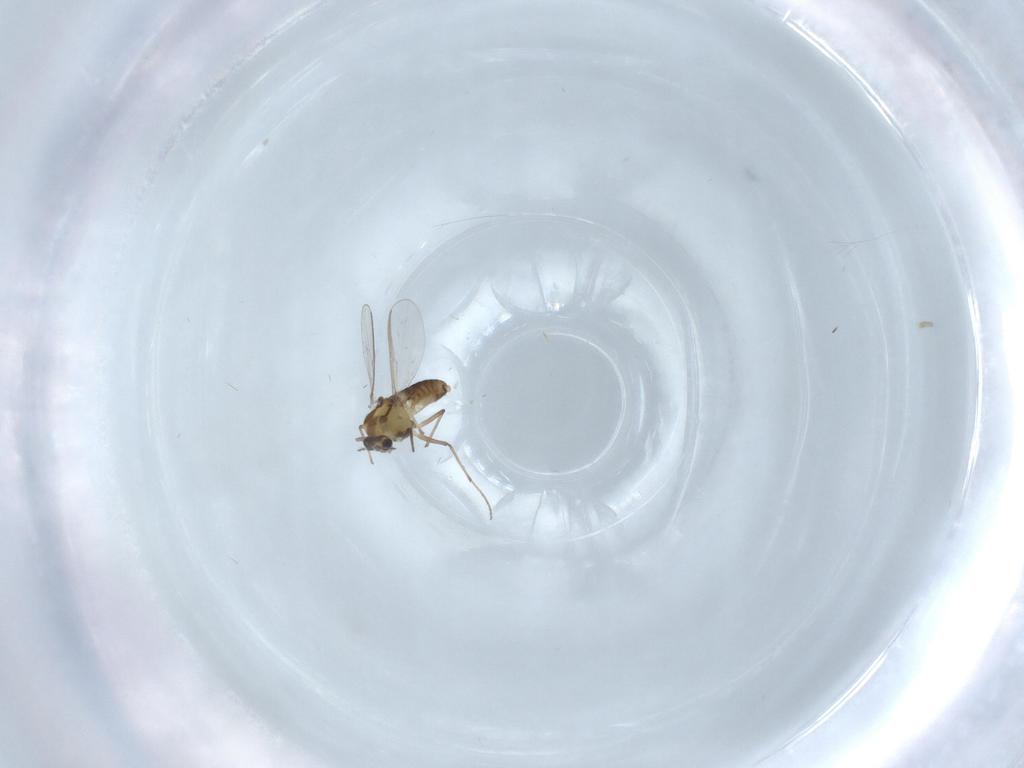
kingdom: Animalia
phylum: Arthropoda
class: Insecta
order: Diptera
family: Chironomidae
